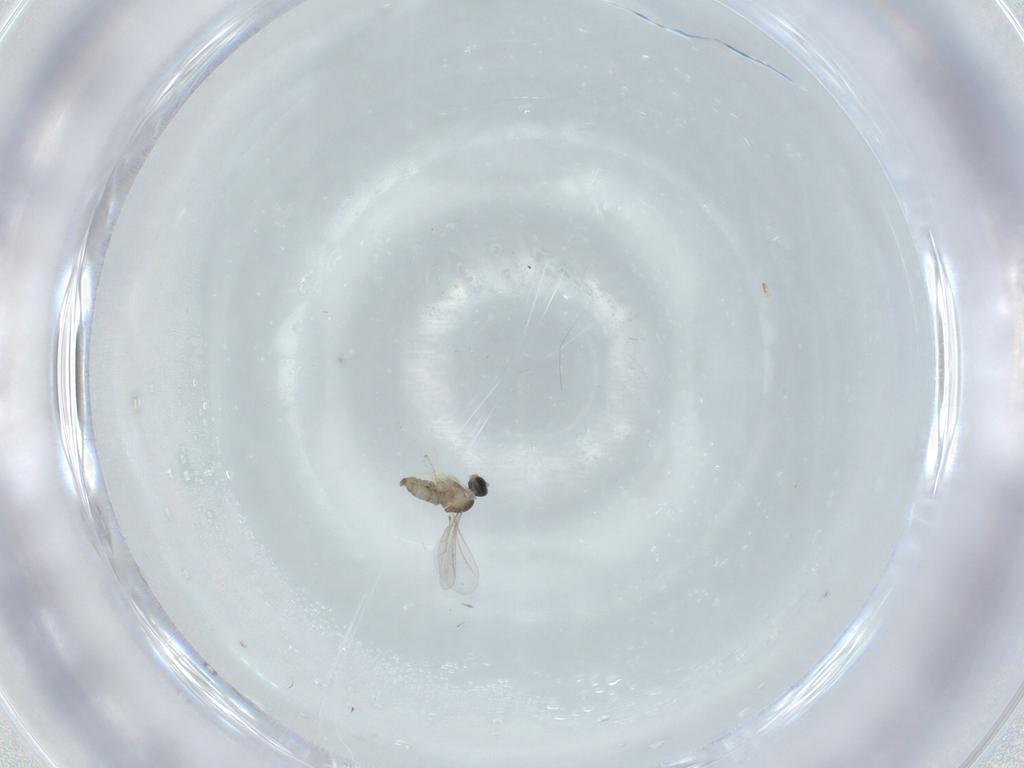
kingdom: Animalia
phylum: Arthropoda
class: Insecta
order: Diptera
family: Cecidomyiidae
